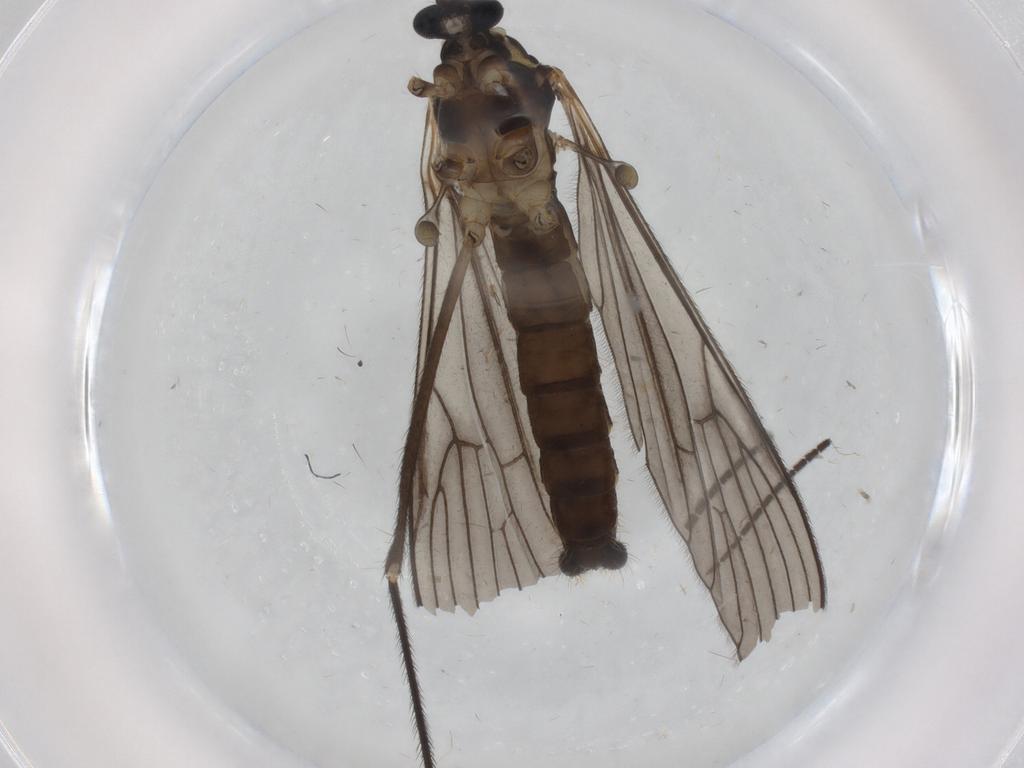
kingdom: Animalia
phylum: Arthropoda
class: Insecta
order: Diptera
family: Phoridae
